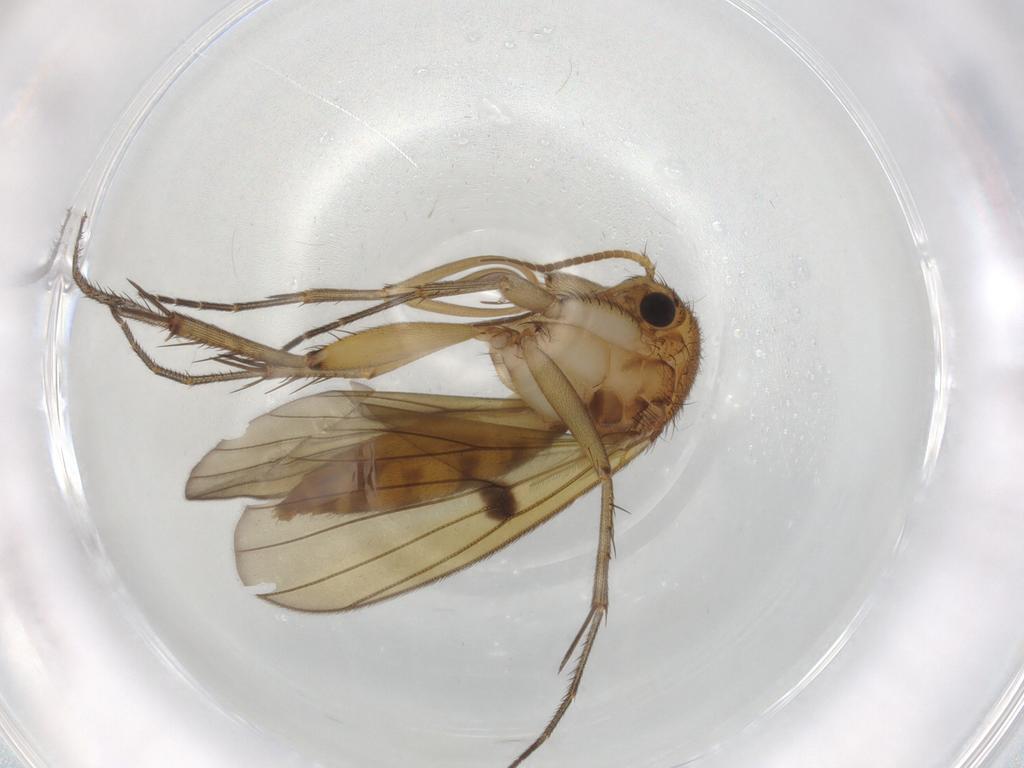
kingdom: Animalia
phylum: Arthropoda
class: Insecta
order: Diptera
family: Mycetophilidae
